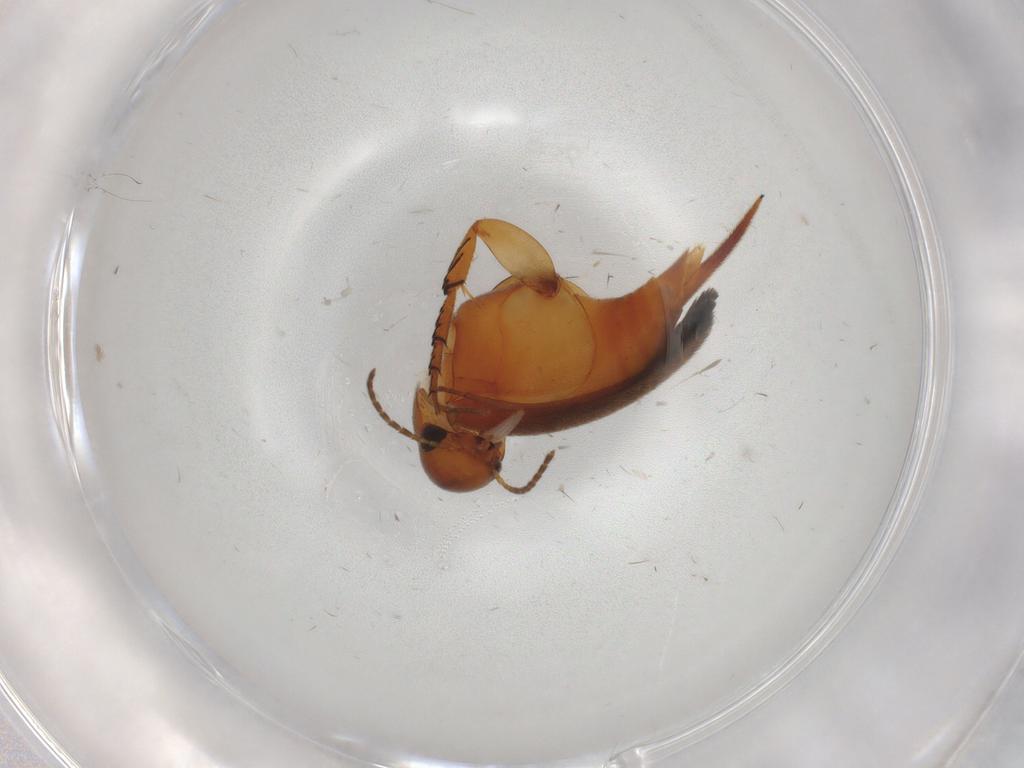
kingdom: Animalia
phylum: Arthropoda
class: Insecta
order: Coleoptera
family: Mordellidae
